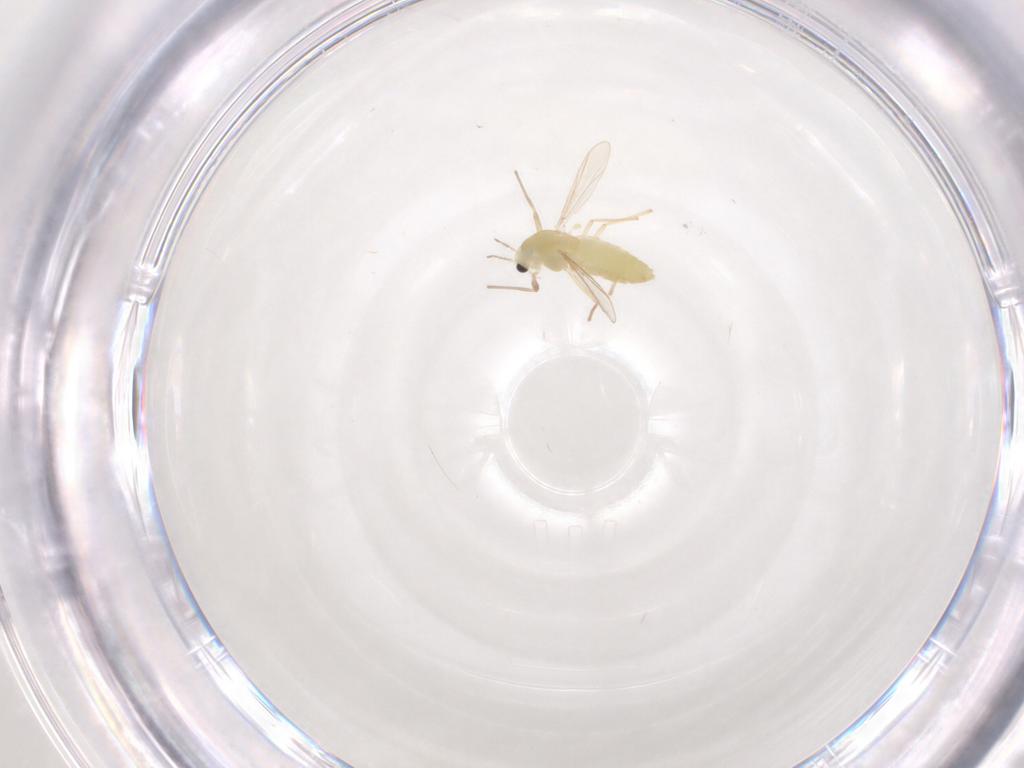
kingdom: Animalia
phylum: Arthropoda
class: Insecta
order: Diptera
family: Chironomidae
